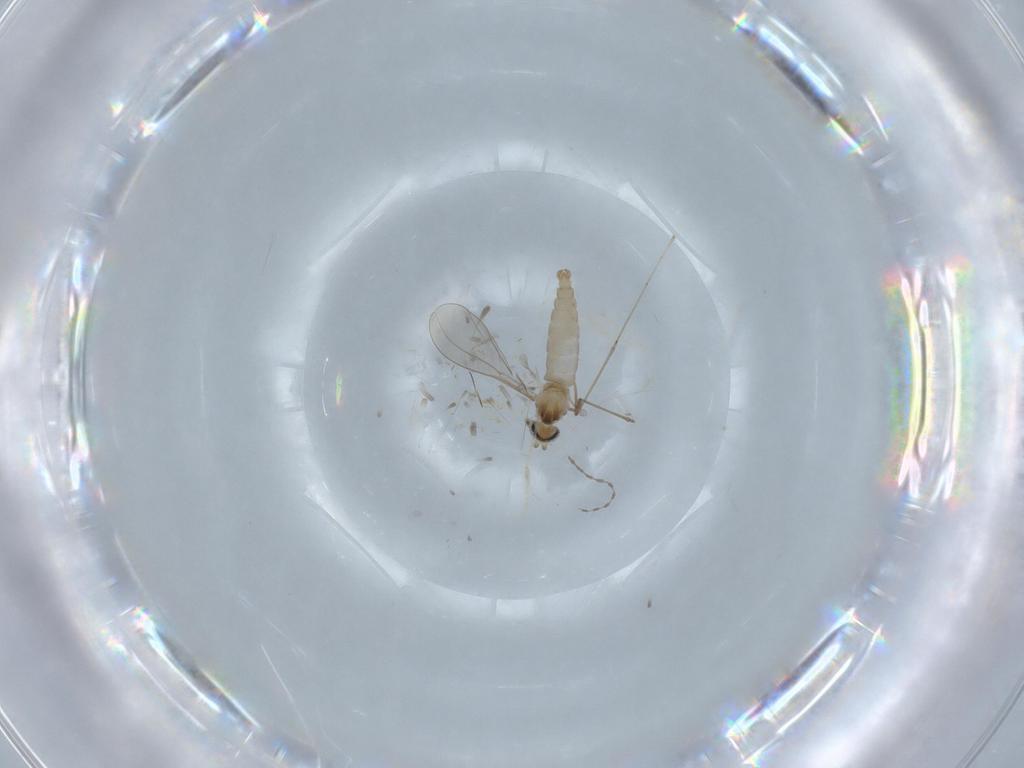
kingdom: Animalia
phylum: Arthropoda
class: Insecta
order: Diptera
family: Cecidomyiidae
